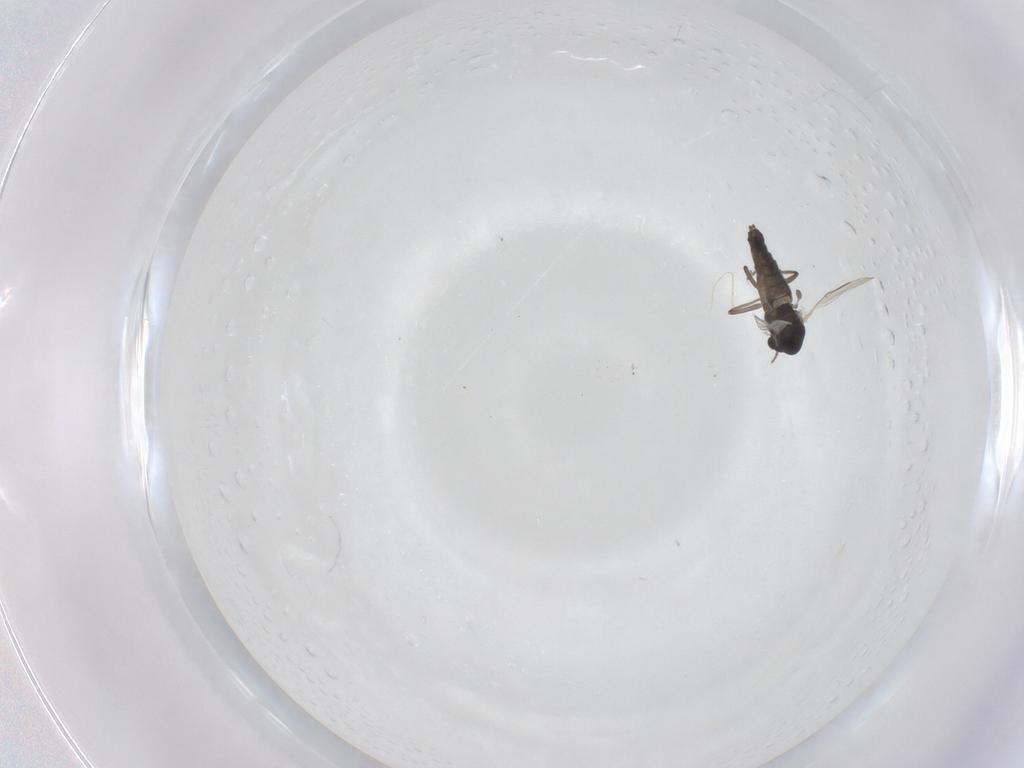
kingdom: Animalia
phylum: Arthropoda
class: Insecta
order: Diptera
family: Chironomidae
